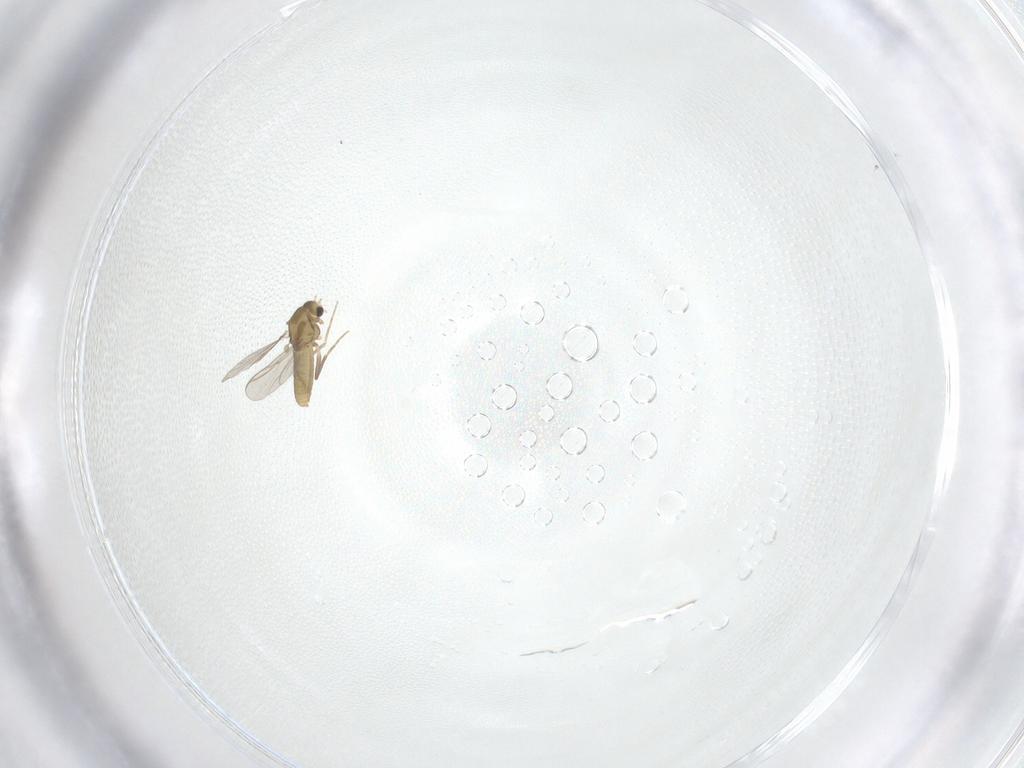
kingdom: Animalia
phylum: Arthropoda
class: Insecta
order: Diptera
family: Chironomidae
